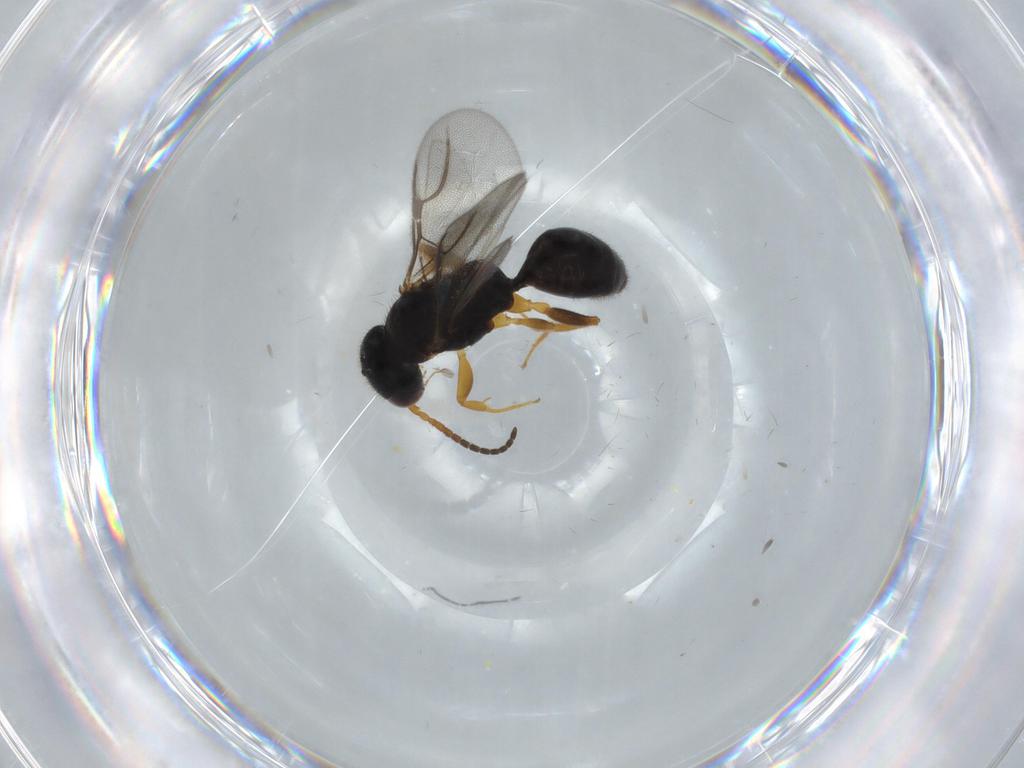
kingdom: Animalia
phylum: Arthropoda
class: Insecta
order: Hymenoptera
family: Bethylidae
